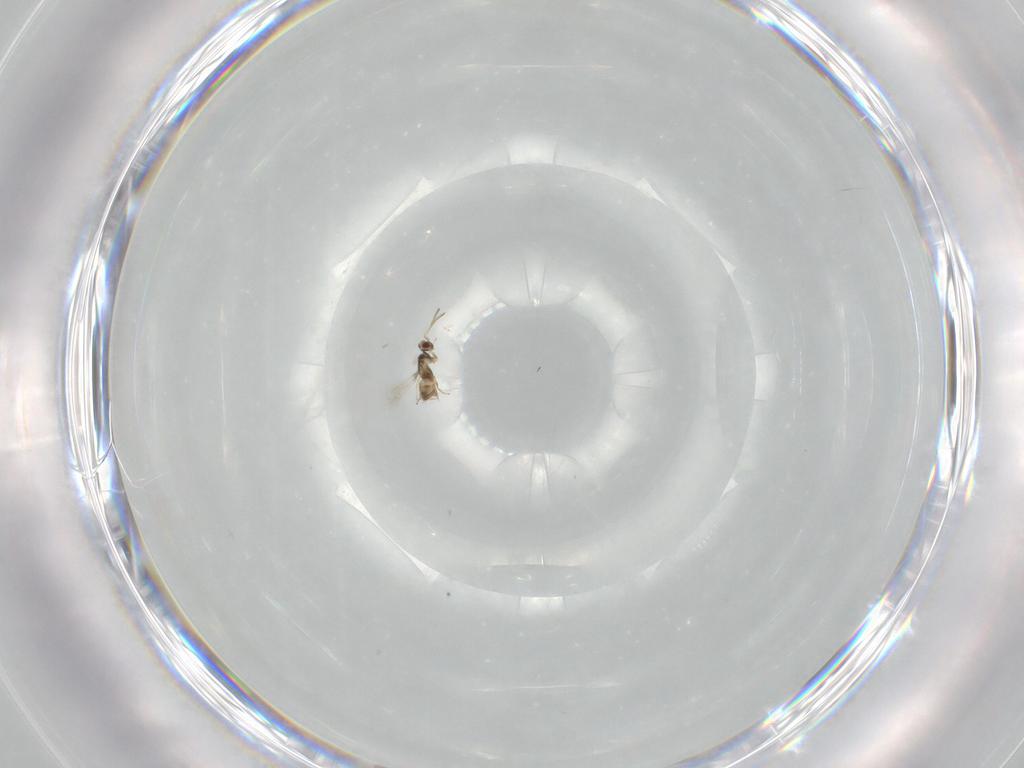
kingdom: Animalia
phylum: Arthropoda
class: Insecta
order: Hymenoptera
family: Mymaridae
